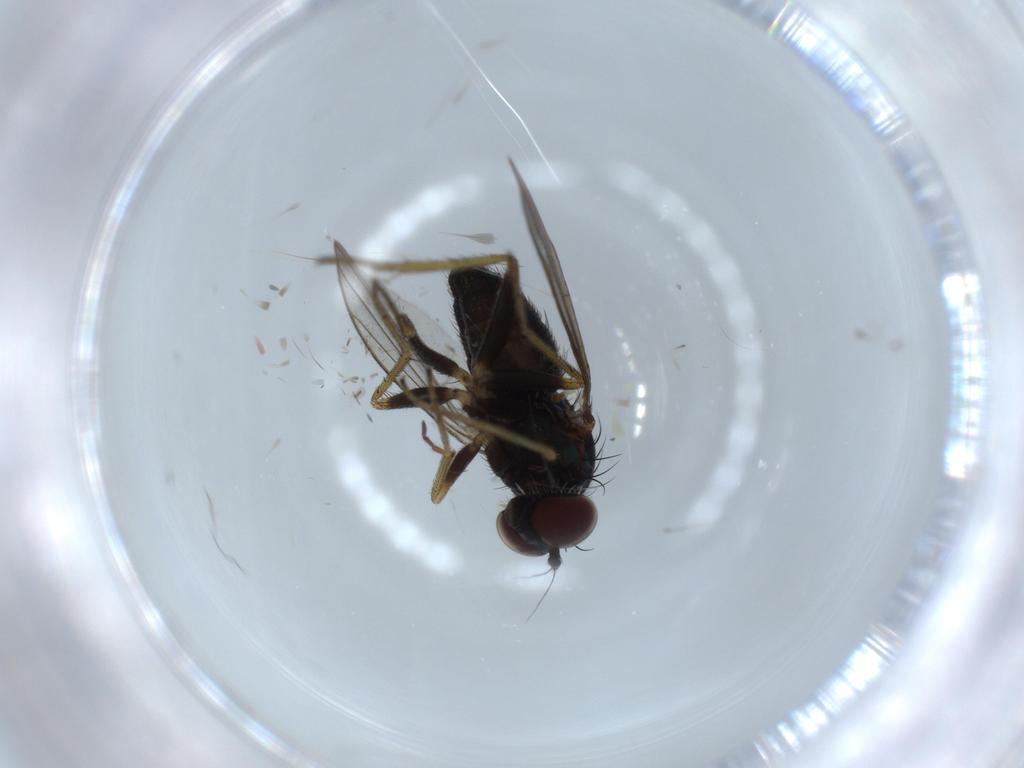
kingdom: Animalia
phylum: Arthropoda
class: Insecta
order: Diptera
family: Dolichopodidae
